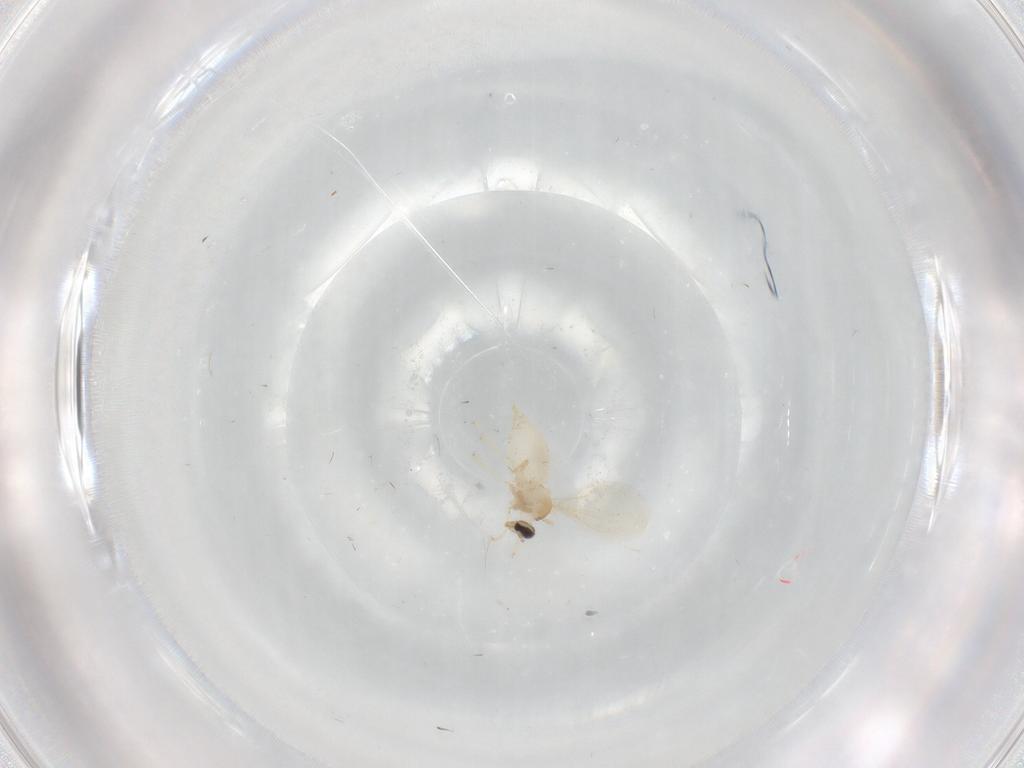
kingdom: Animalia
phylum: Arthropoda
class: Insecta
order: Diptera
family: Cecidomyiidae
